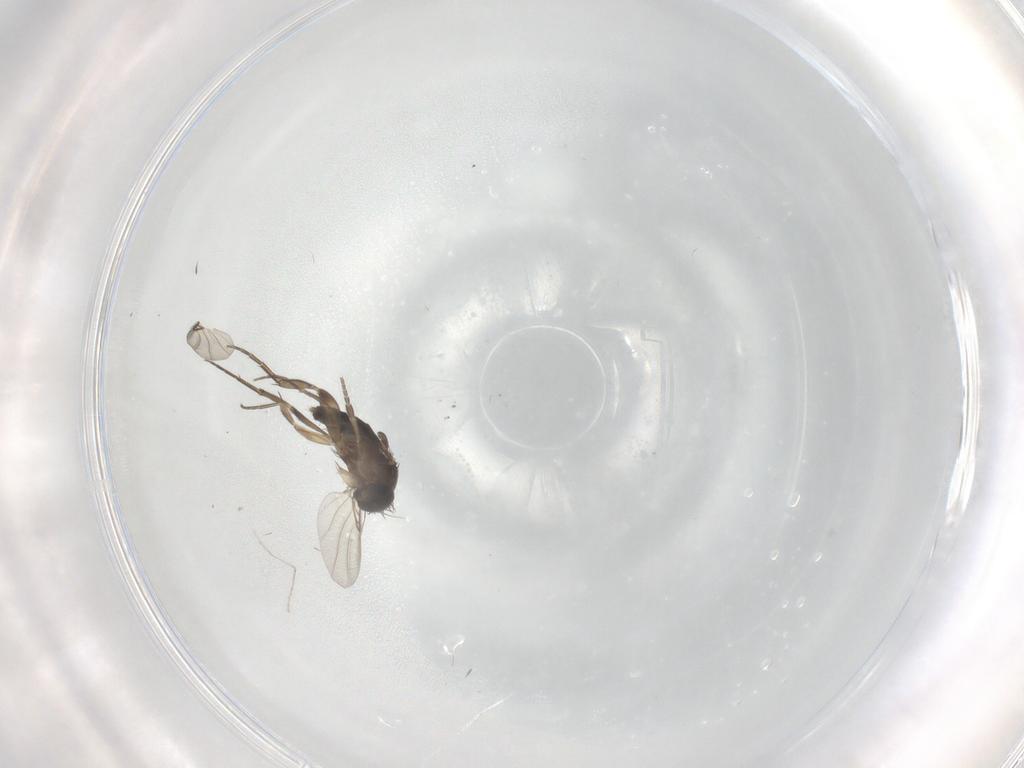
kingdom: Animalia
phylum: Arthropoda
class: Insecta
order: Diptera
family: Phoridae
